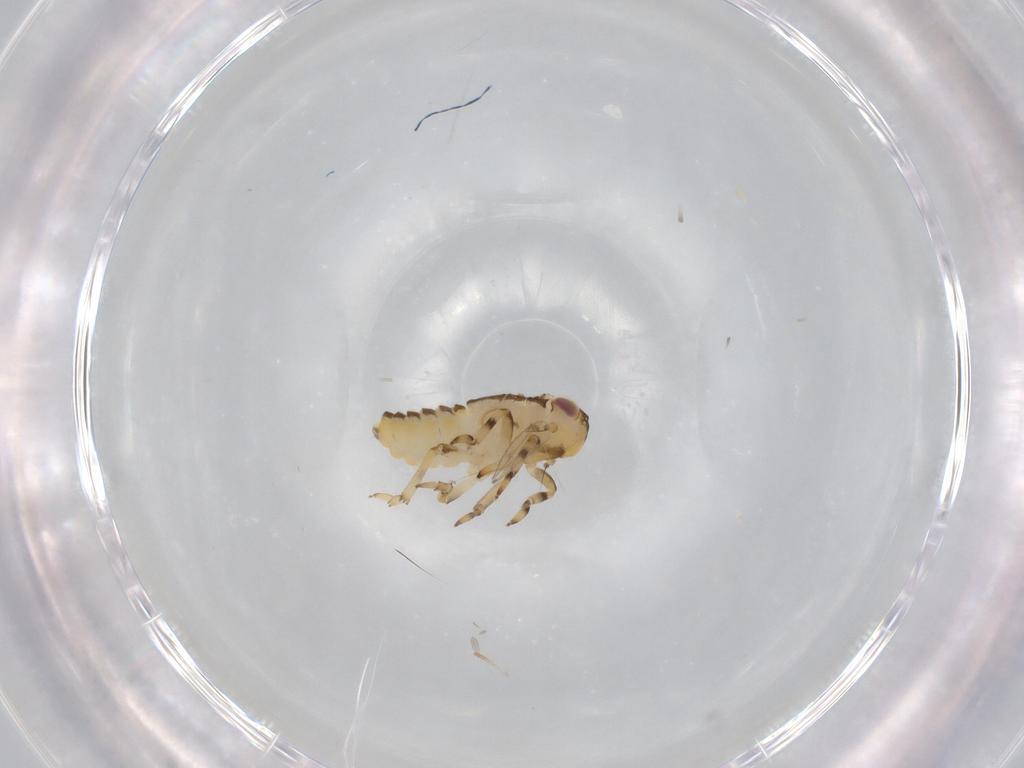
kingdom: Animalia
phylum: Arthropoda
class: Insecta
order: Hemiptera
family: Issidae
